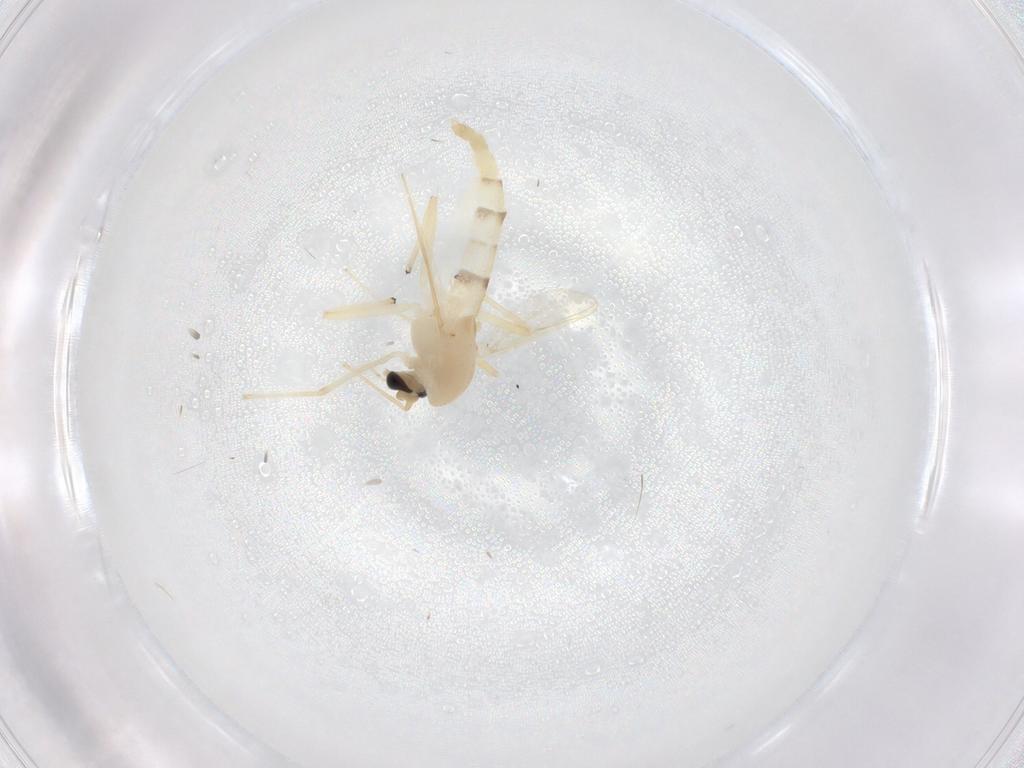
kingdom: Animalia
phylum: Arthropoda
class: Insecta
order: Diptera
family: Chironomidae
